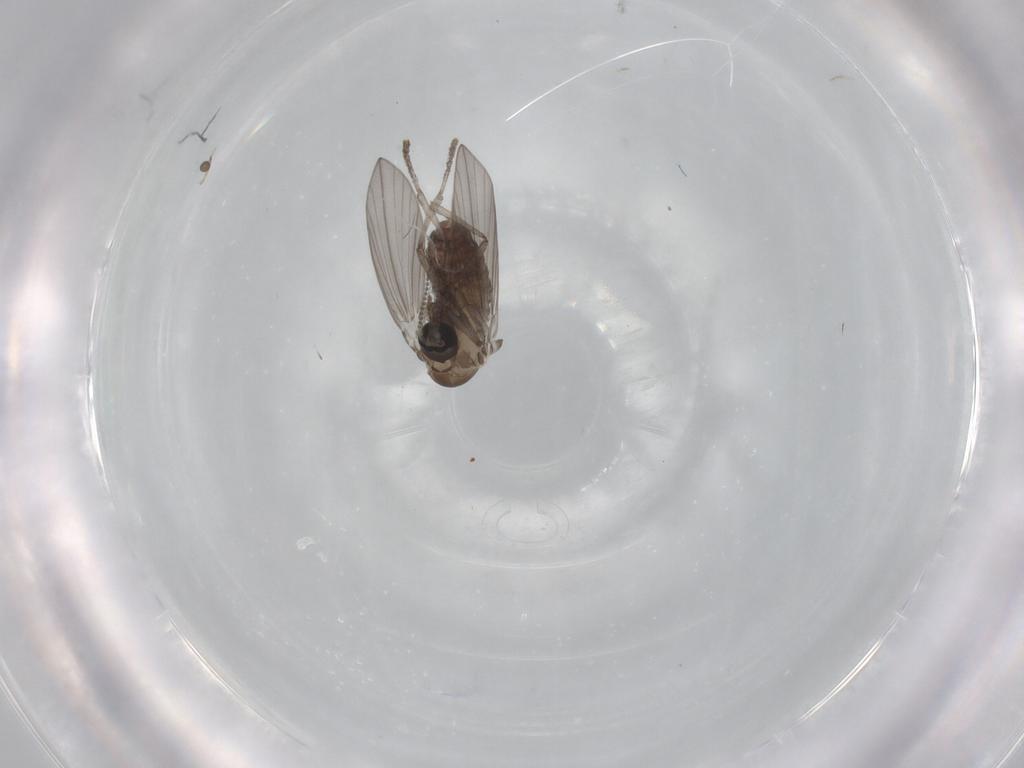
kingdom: Animalia
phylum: Arthropoda
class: Insecta
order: Diptera
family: Psychodidae
